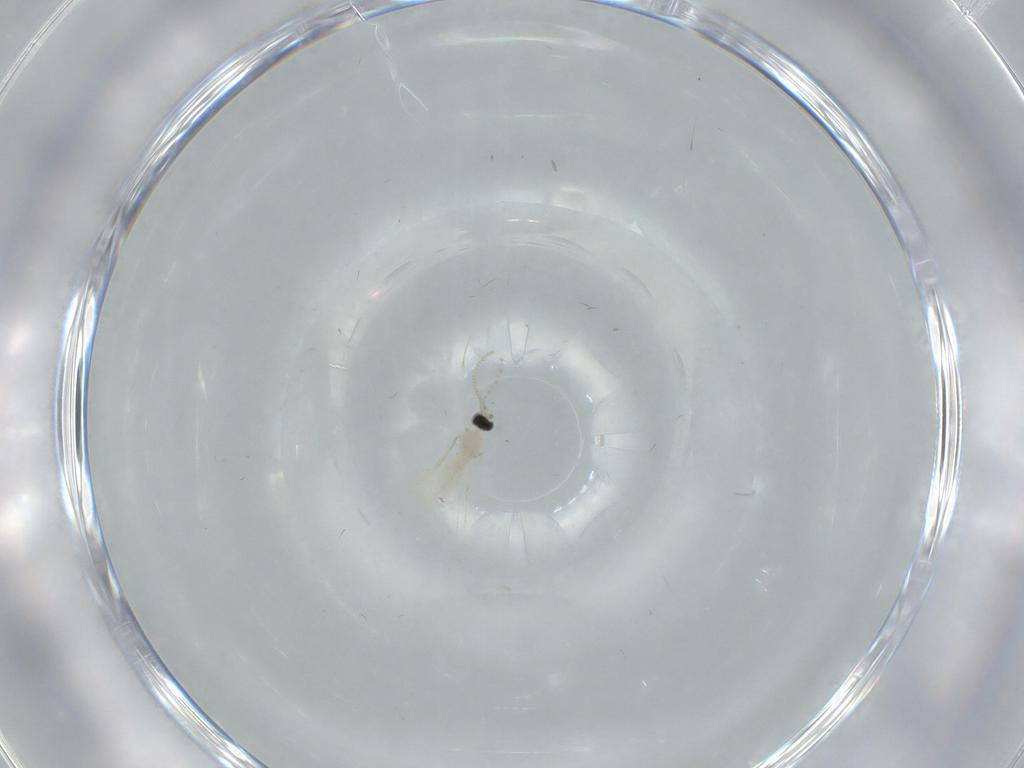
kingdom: Animalia
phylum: Arthropoda
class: Insecta
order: Diptera
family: Cecidomyiidae
